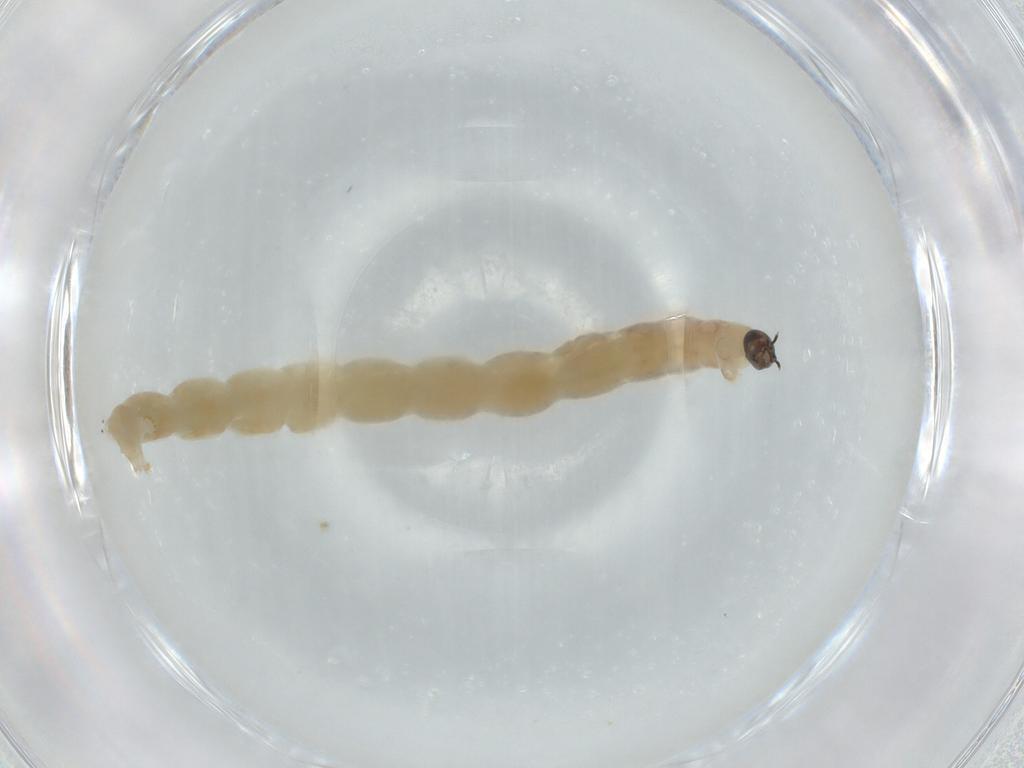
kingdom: Animalia
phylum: Arthropoda
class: Insecta
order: Diptera
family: Chironomidae
